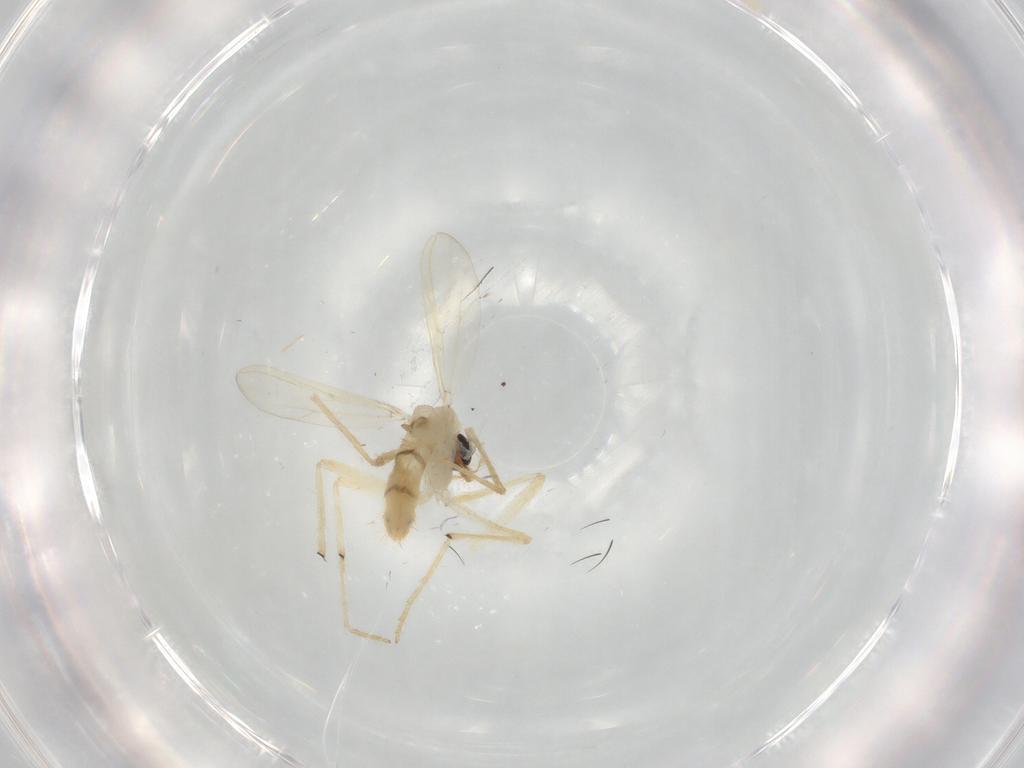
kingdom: Animalia
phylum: Arthropoda
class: Insecta
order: Diptera
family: Chironomidae
